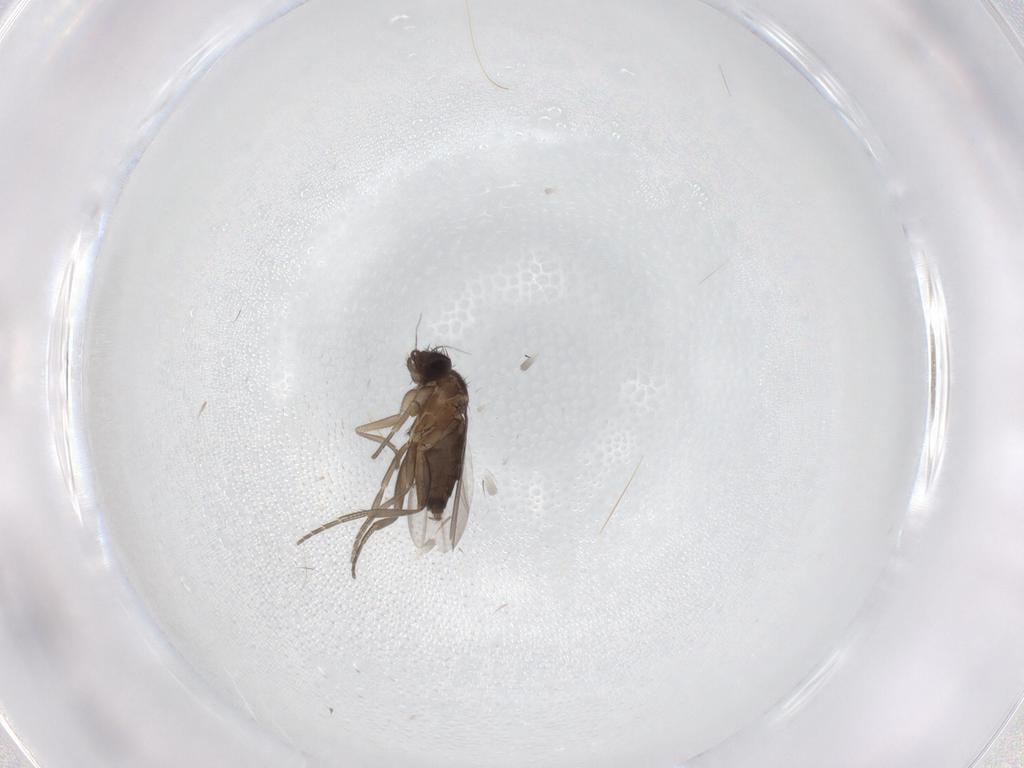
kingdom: Animalia
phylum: Arthropoda
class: Insecta
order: Diptera
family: Phoridae
